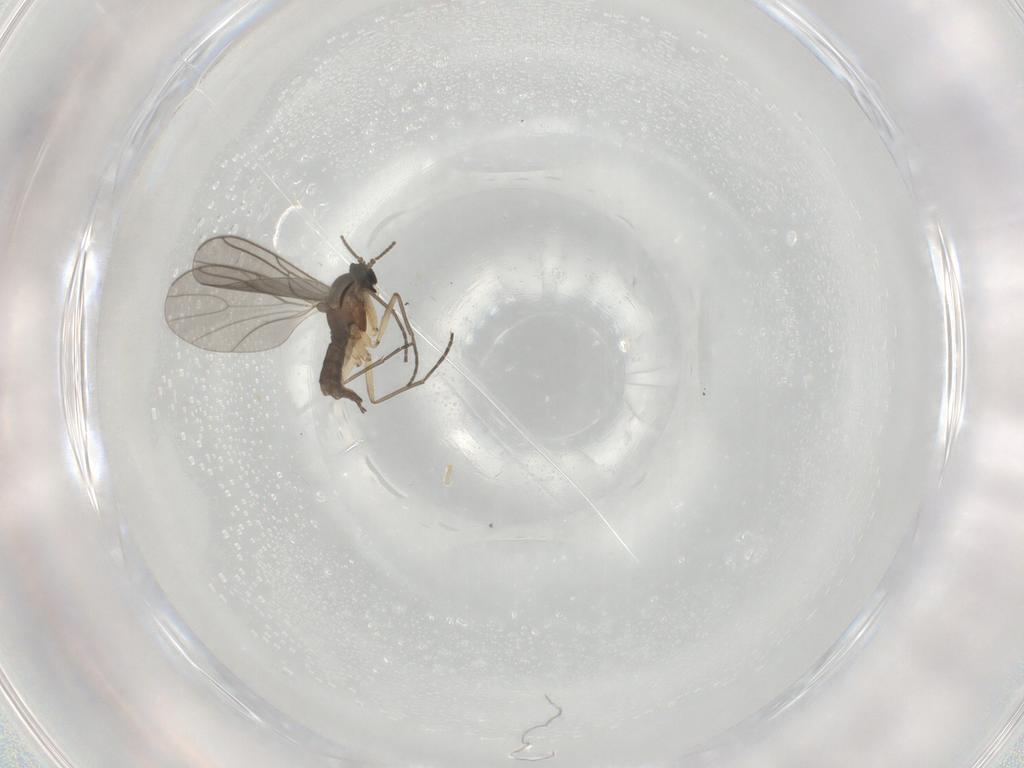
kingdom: Animalia
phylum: Arthropoda
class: Insecta
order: Diptera
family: Sciaridae
